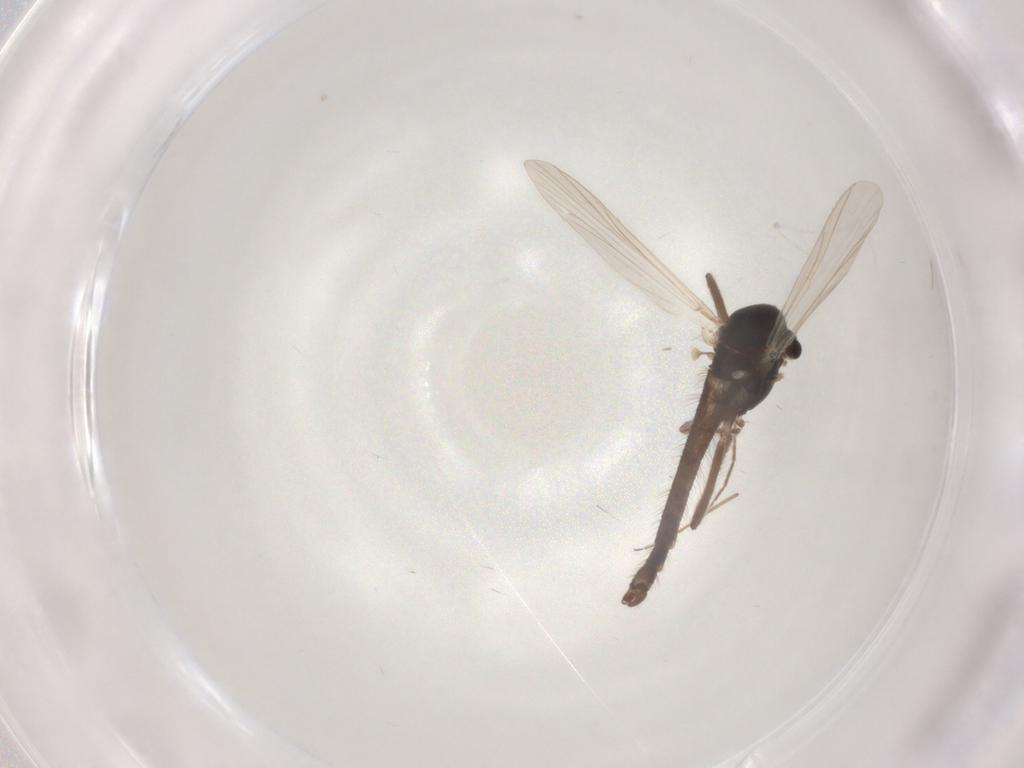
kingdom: Animalia
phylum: Arthropoda
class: Insecta
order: Diptera
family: Chironomidae
